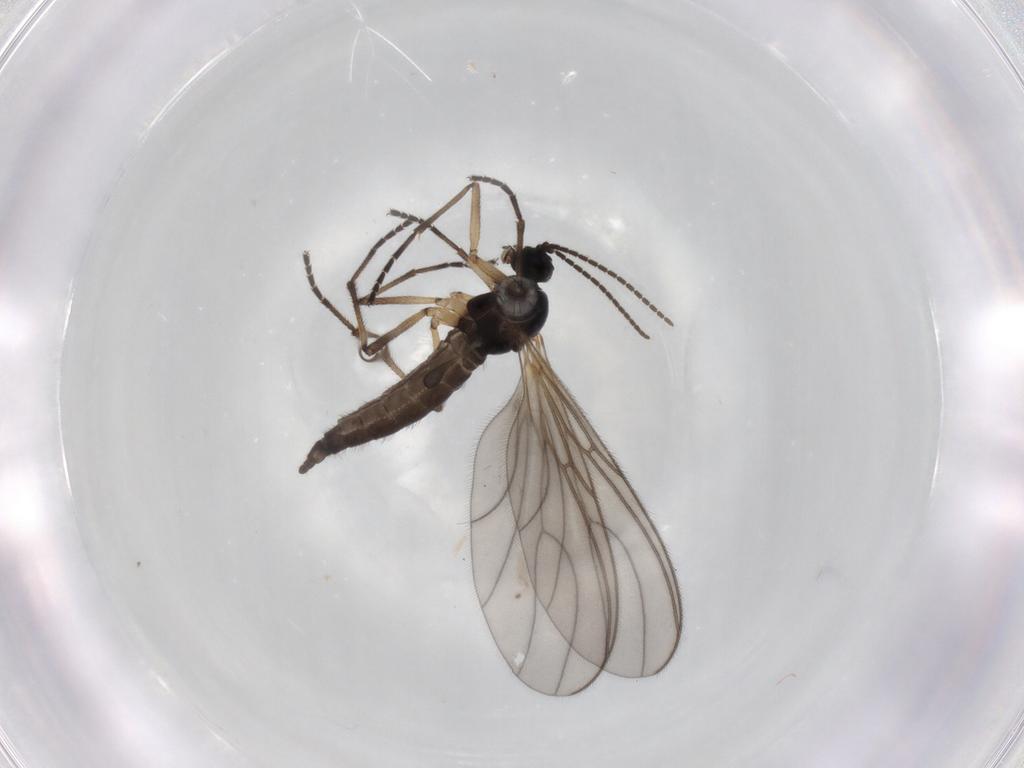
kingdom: Animalia
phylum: Arthropoda
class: Insecta
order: Diptera
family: Sciaridae
